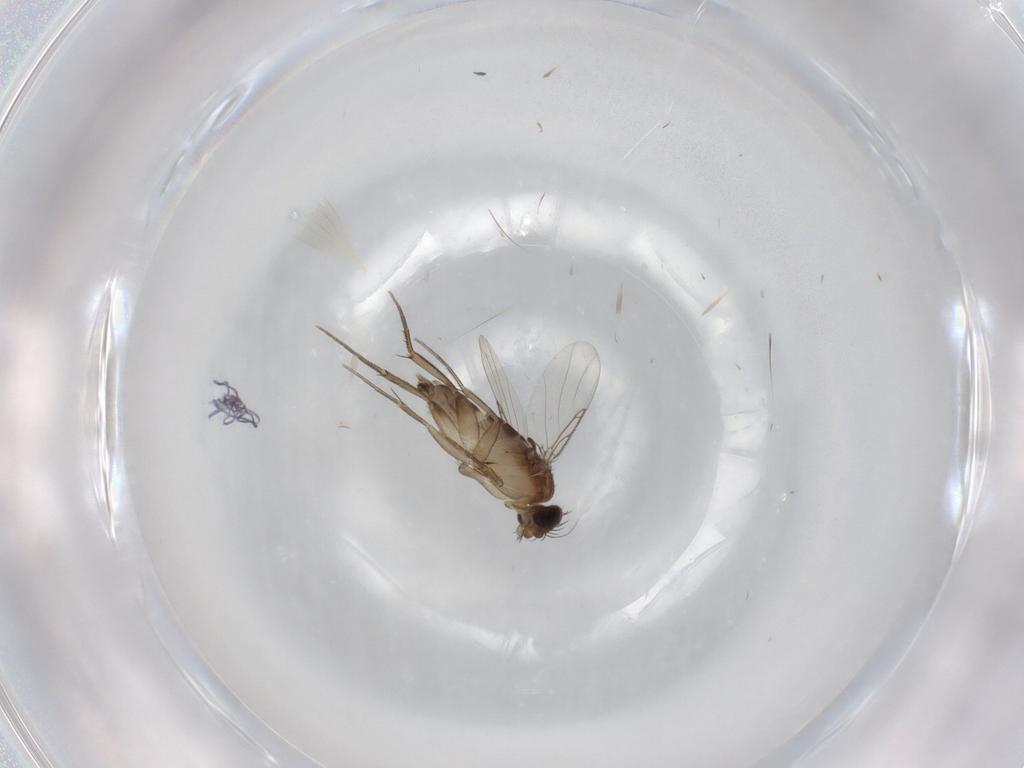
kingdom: Animalia
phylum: Arthropoda
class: Insecta
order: Diptera
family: Phoridae
